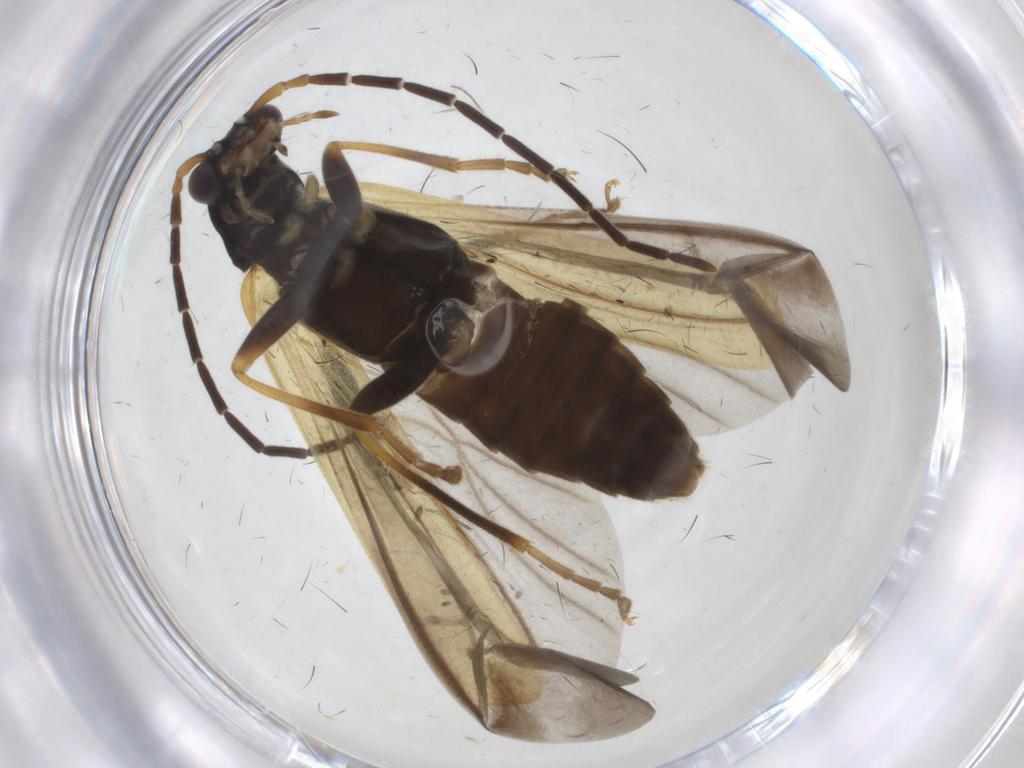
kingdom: Animalia
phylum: Arthropoda
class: Insecta
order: Coleoptera
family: Cantharidae
